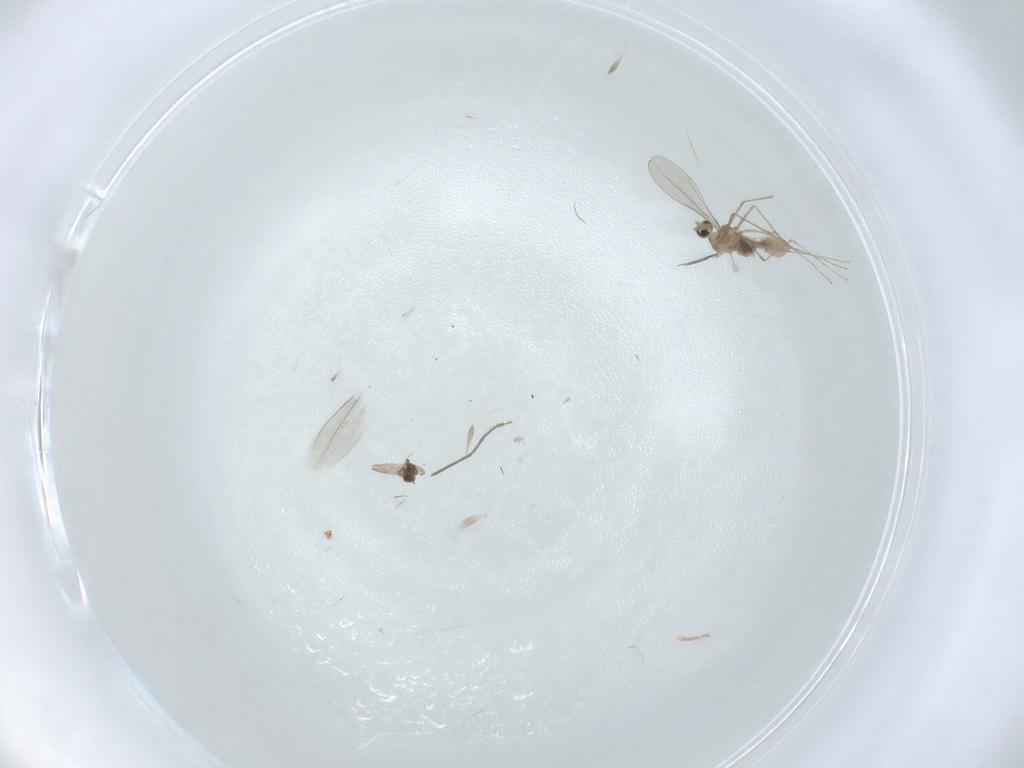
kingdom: Animalia
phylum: Arthropoda
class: Insecta
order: Diptera
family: Cecidomyiidae
